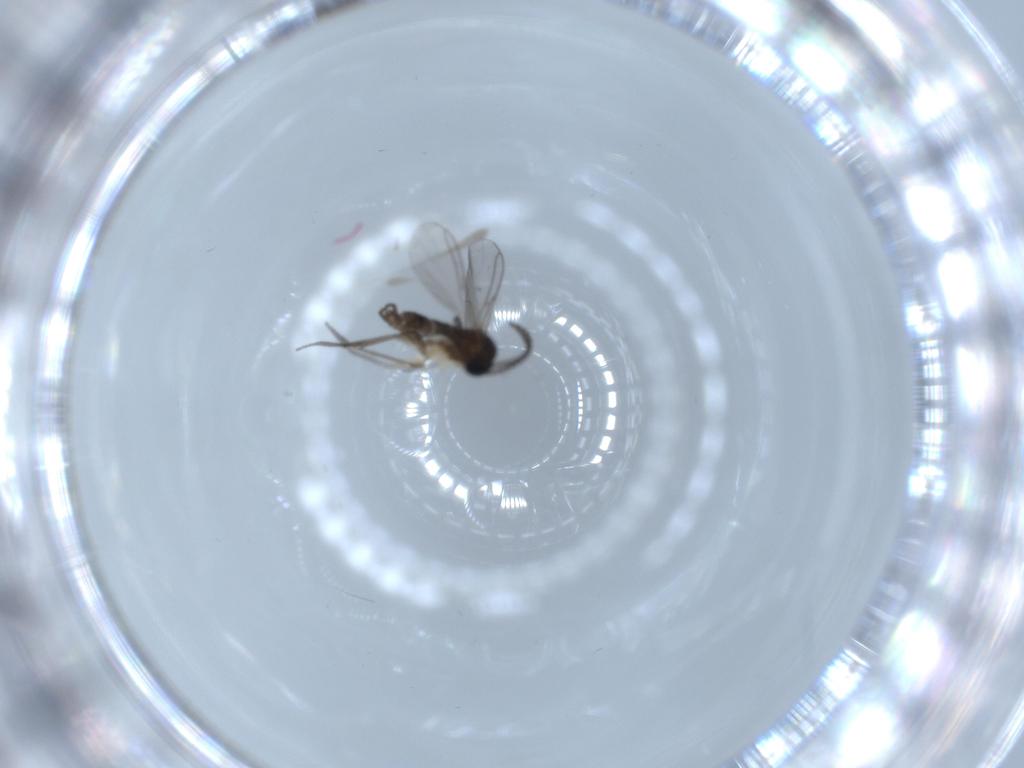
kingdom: Animalia
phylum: Arthropoda
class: Insecta
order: Diptera
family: Sciaridae
